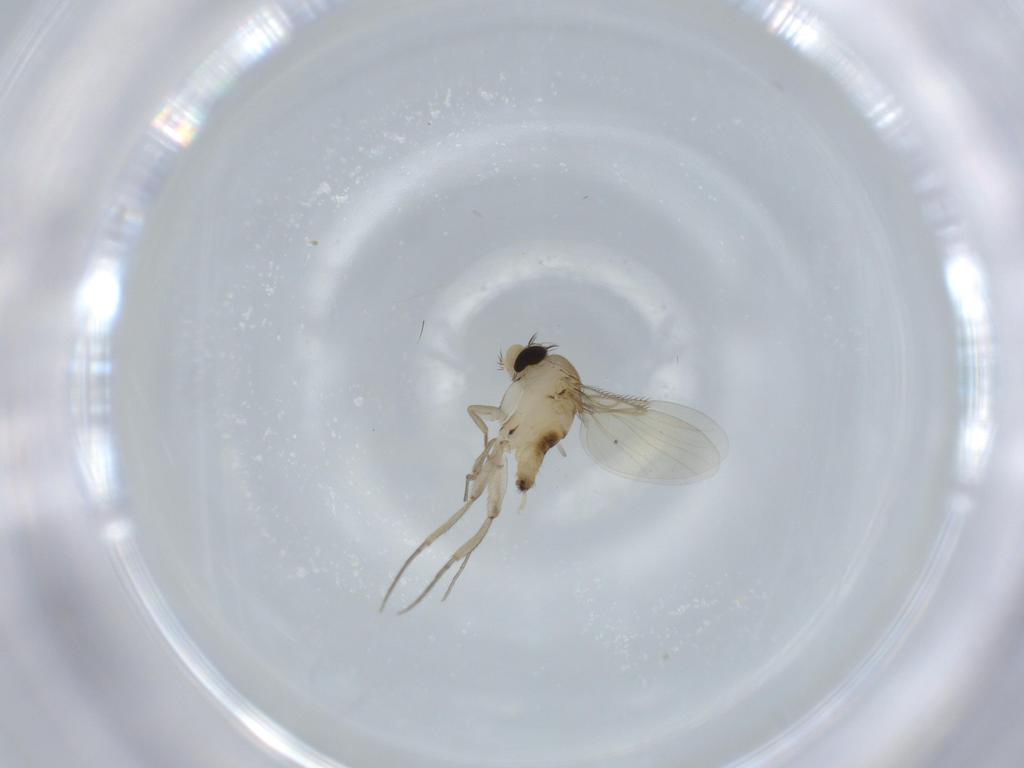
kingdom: Animalia
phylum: Arthropoda
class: Insecta
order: Diptera
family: Phoridae
